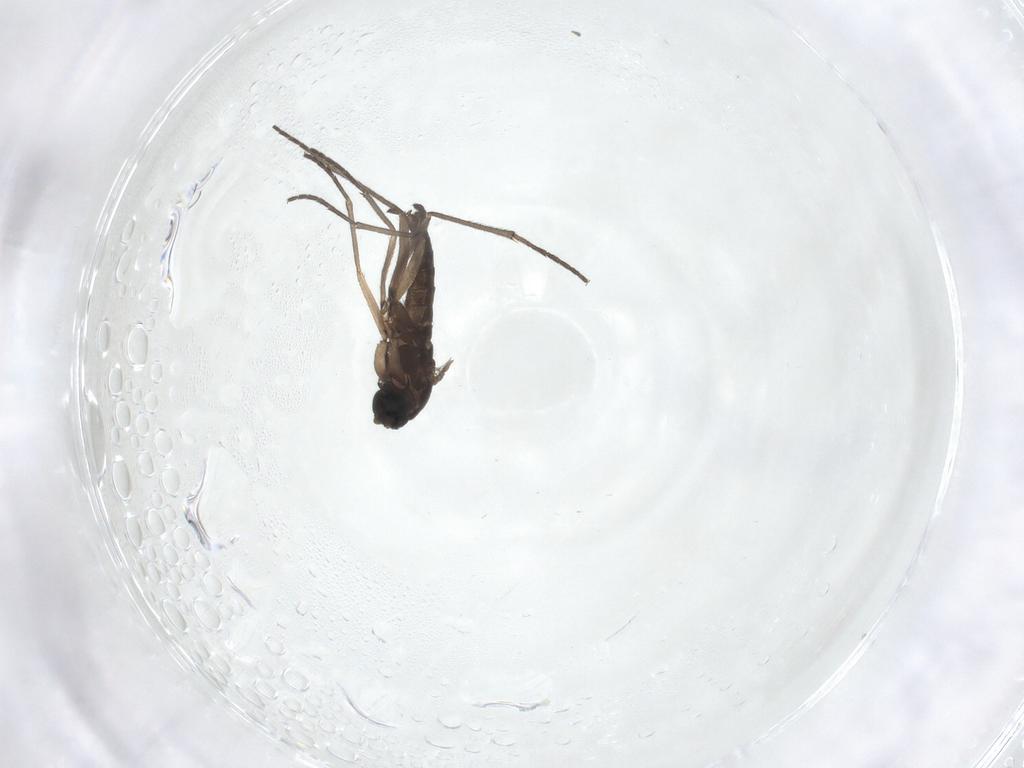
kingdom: Animalia
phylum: Arthropoda
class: Insecta
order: Diptera
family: Sciaridae
